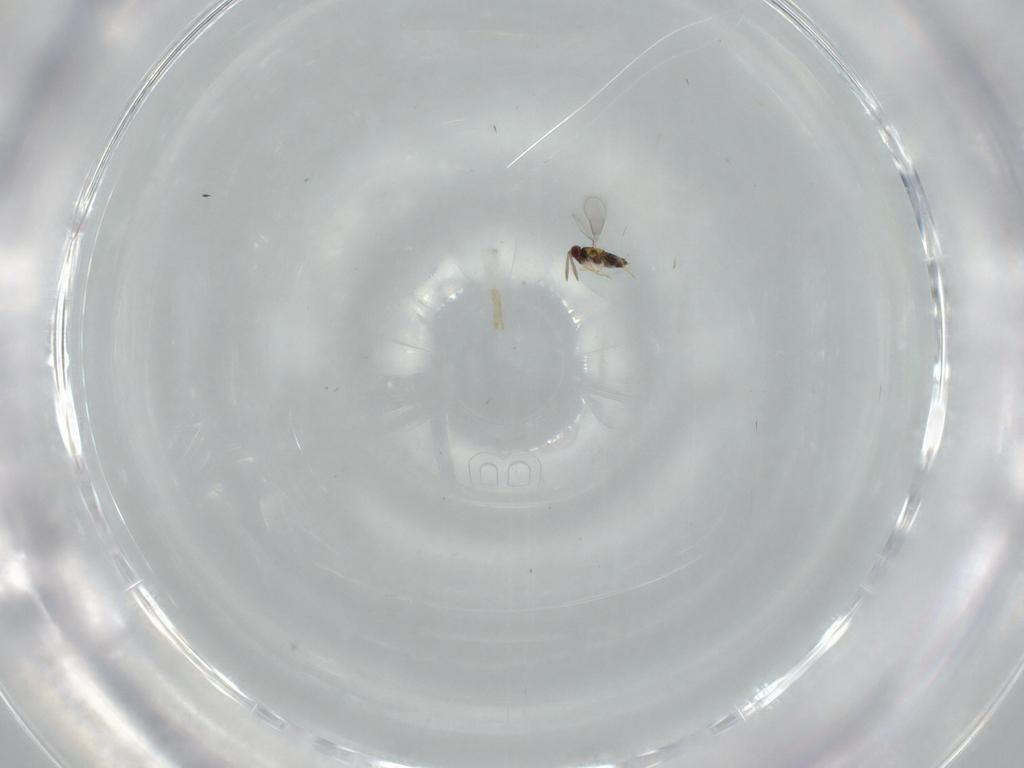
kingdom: Animalia
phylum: Arthropoda
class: Insecta
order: Hymenoptera
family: Aphelinidae
